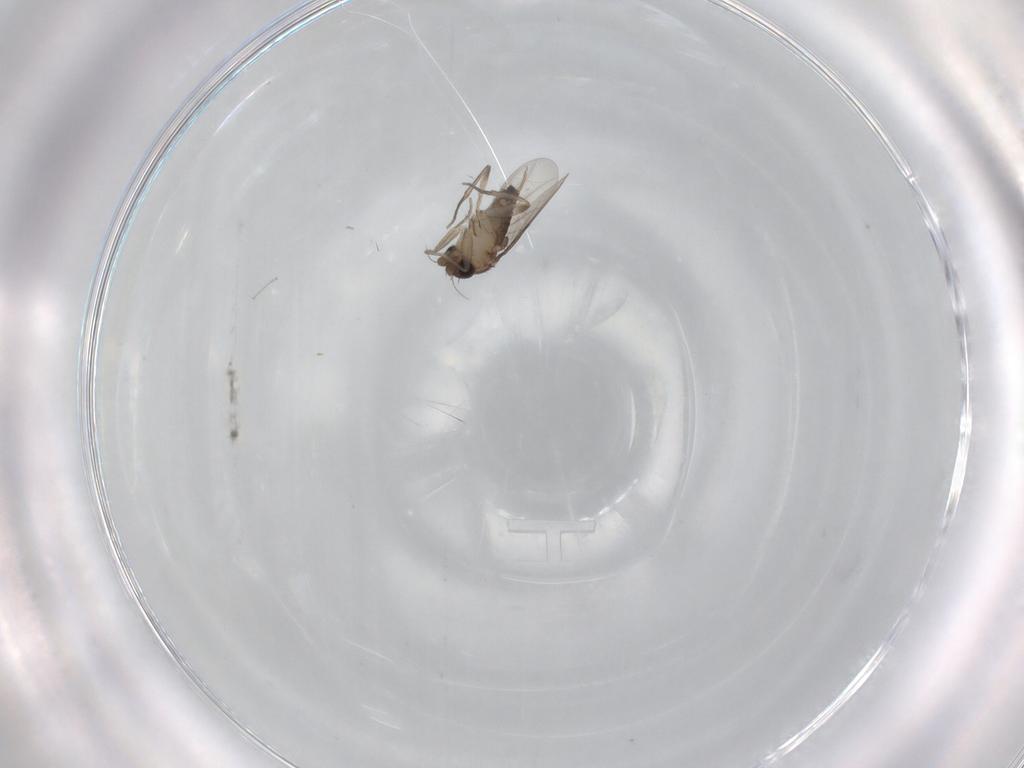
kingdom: Animalia
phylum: Arthropoda
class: Insecta
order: Diptera
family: Phoridae
